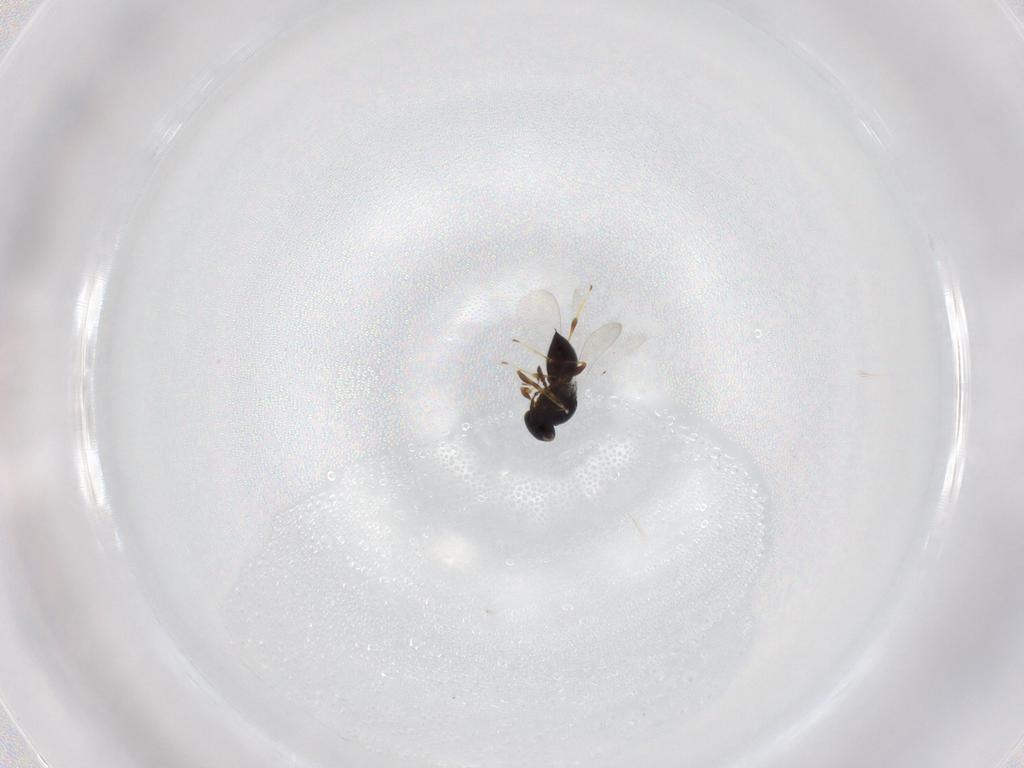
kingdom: Animalia
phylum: Arthropoda
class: Insecta
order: Hymenoptera
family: Platygastridae
